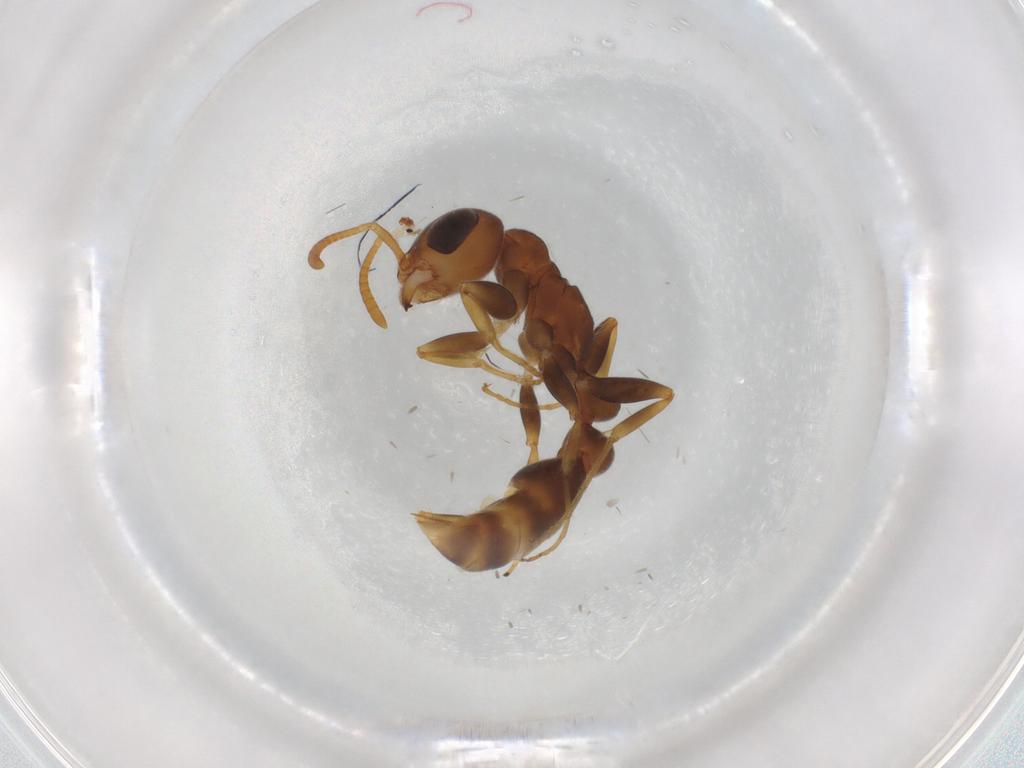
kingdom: Animalia
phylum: Arthropoda
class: Insecta
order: Hymenoptera
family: Formicidae
